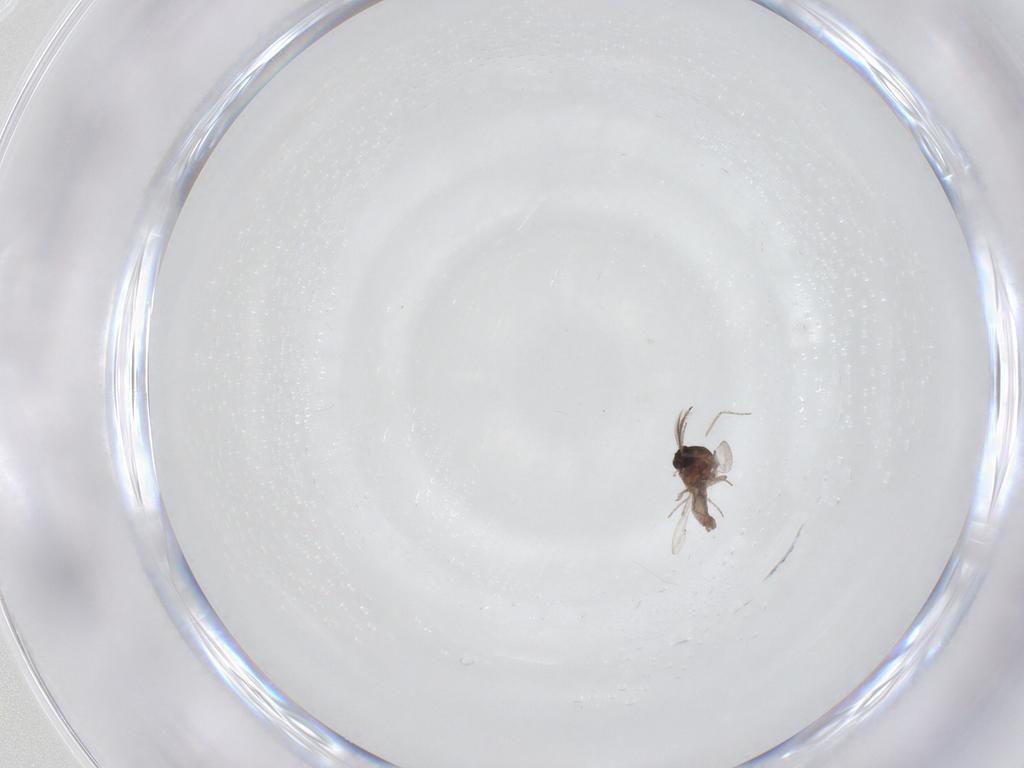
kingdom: Animalia
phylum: Arthropoda
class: Insecta
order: Diptera
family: Ceratopogonidae
